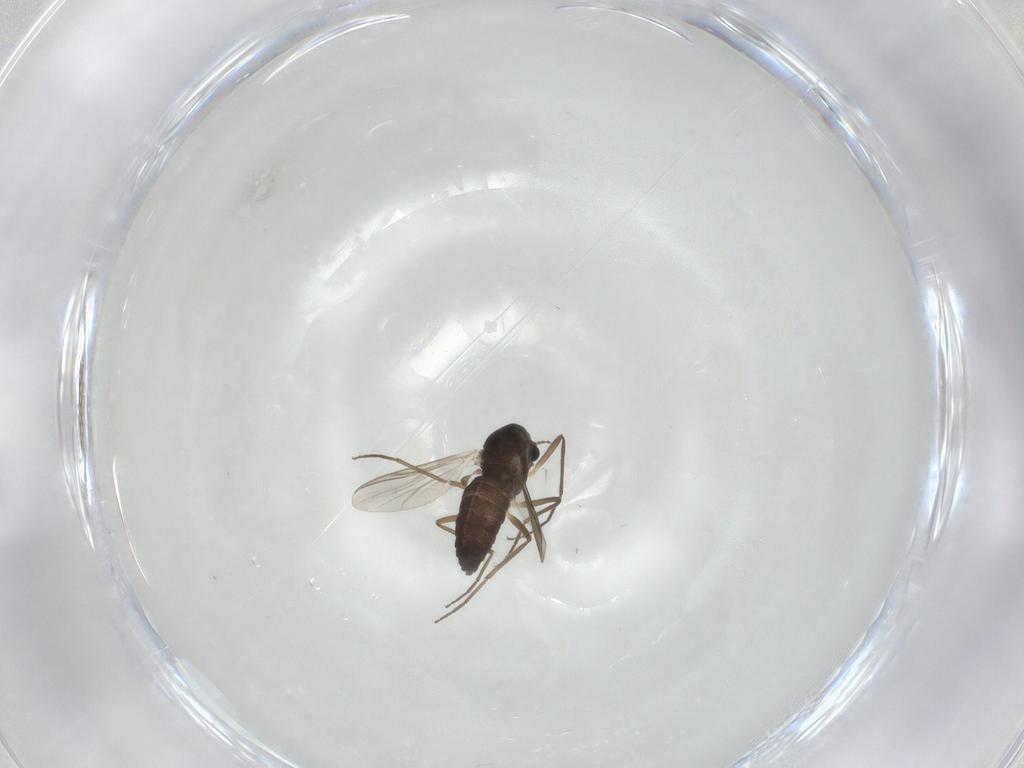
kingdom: Animalia
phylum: Arthropoda
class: Insecta
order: Diptera
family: Chironomidae
